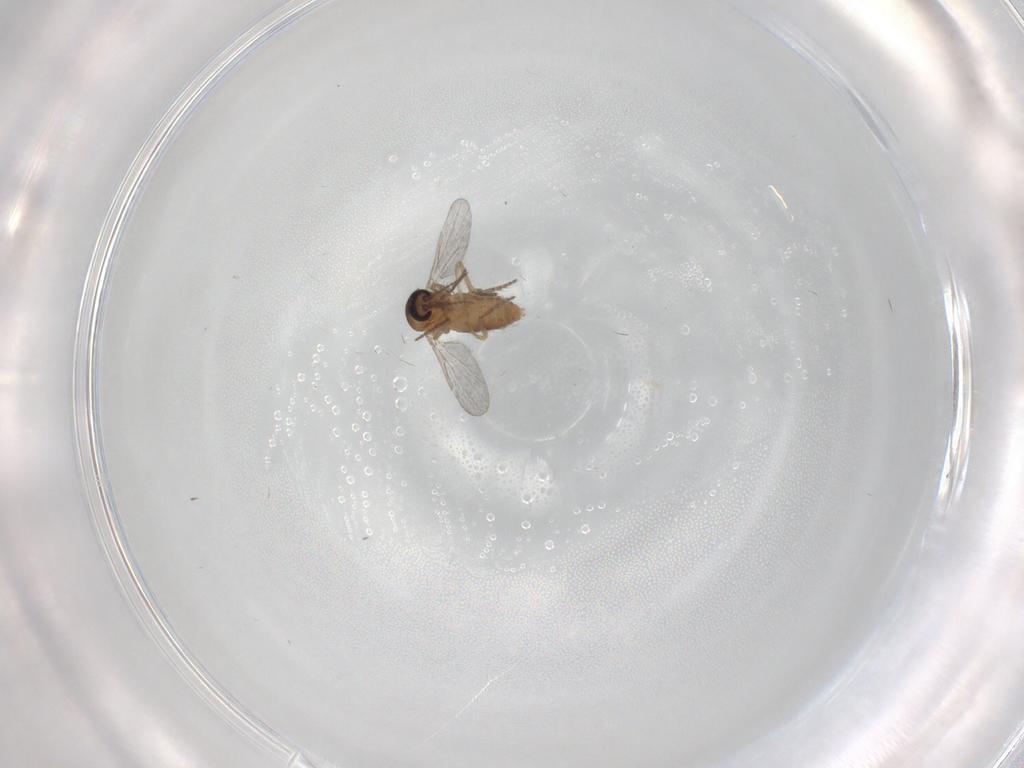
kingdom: Animalia
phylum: Arthropoda
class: Insecta
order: Diptera
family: Ceratopogonidae
